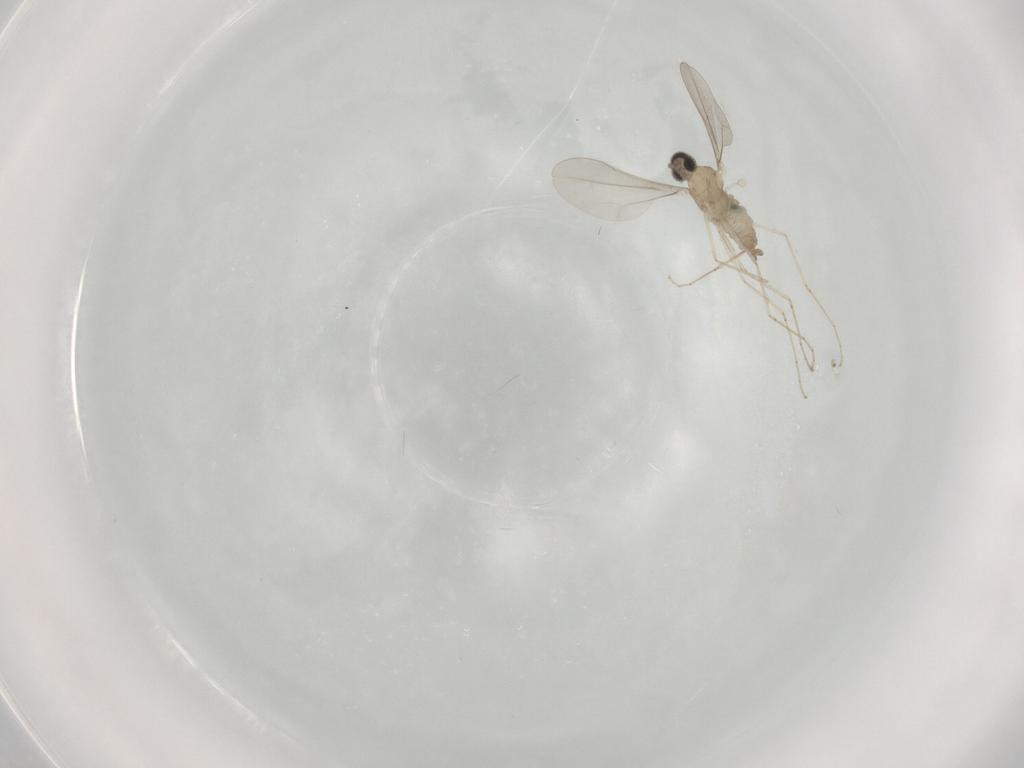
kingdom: Animalia
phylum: Arthropoda
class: Insecta
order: Diptera
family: Cecidomyiidae
